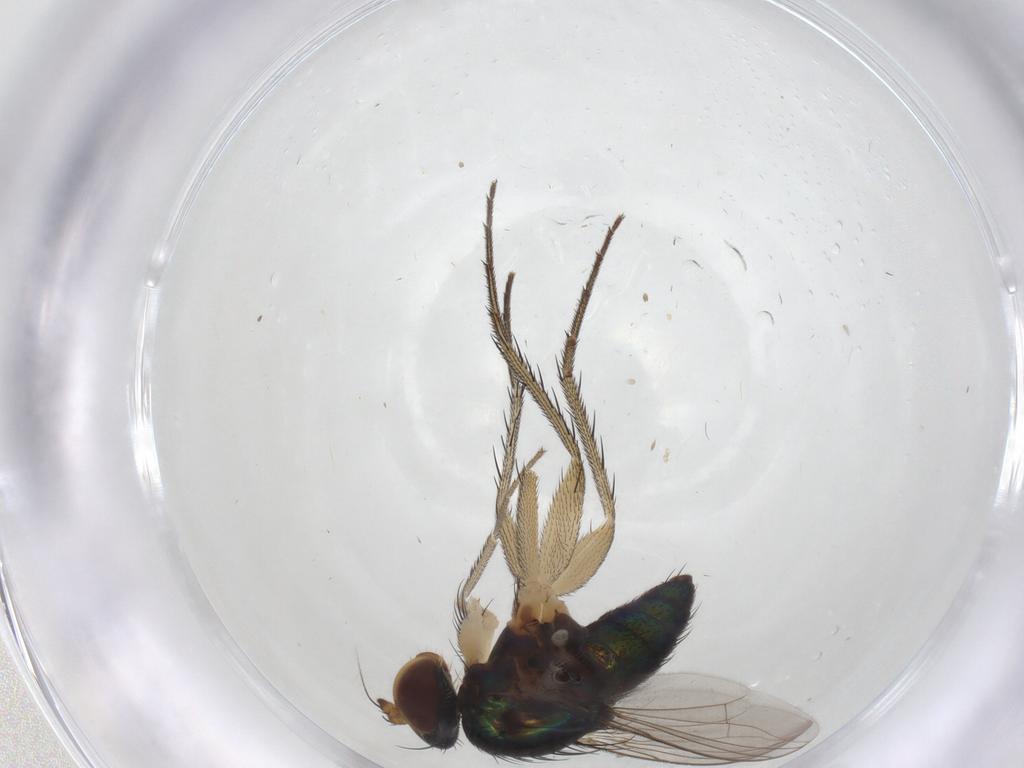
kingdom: Animalia
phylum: Arthropoda
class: Insecta
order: Diptera
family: Dolichopodidae
